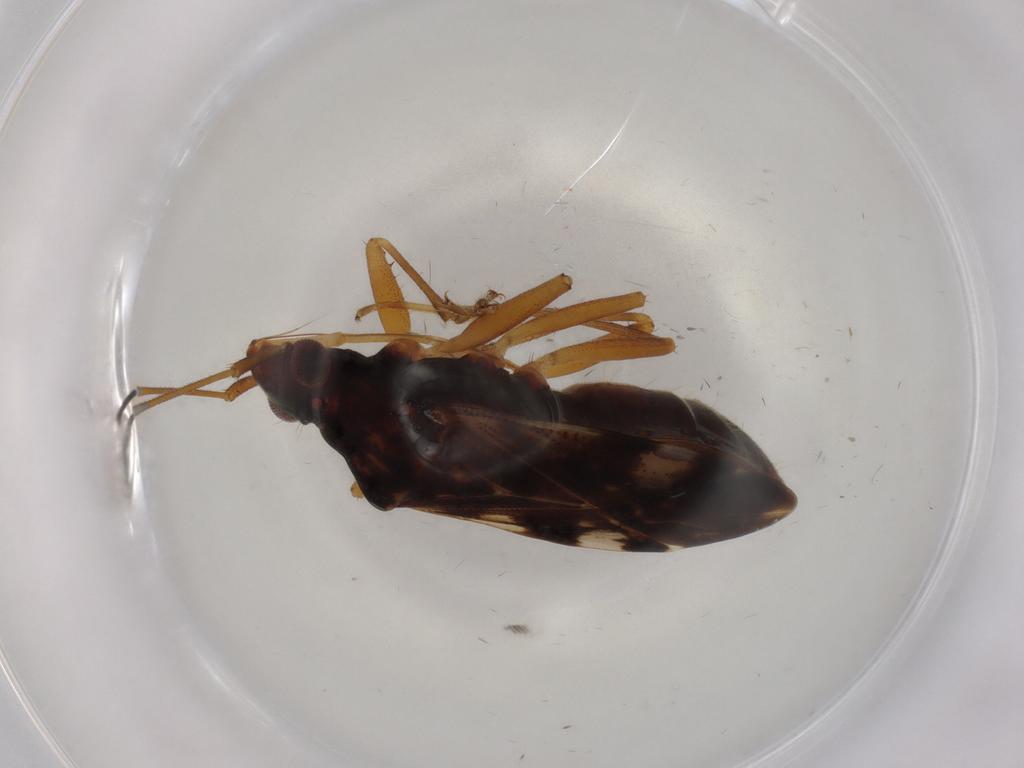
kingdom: Animalia
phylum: Arthropoda
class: Insecta
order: Hemiptera
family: Rhyparochromidae
